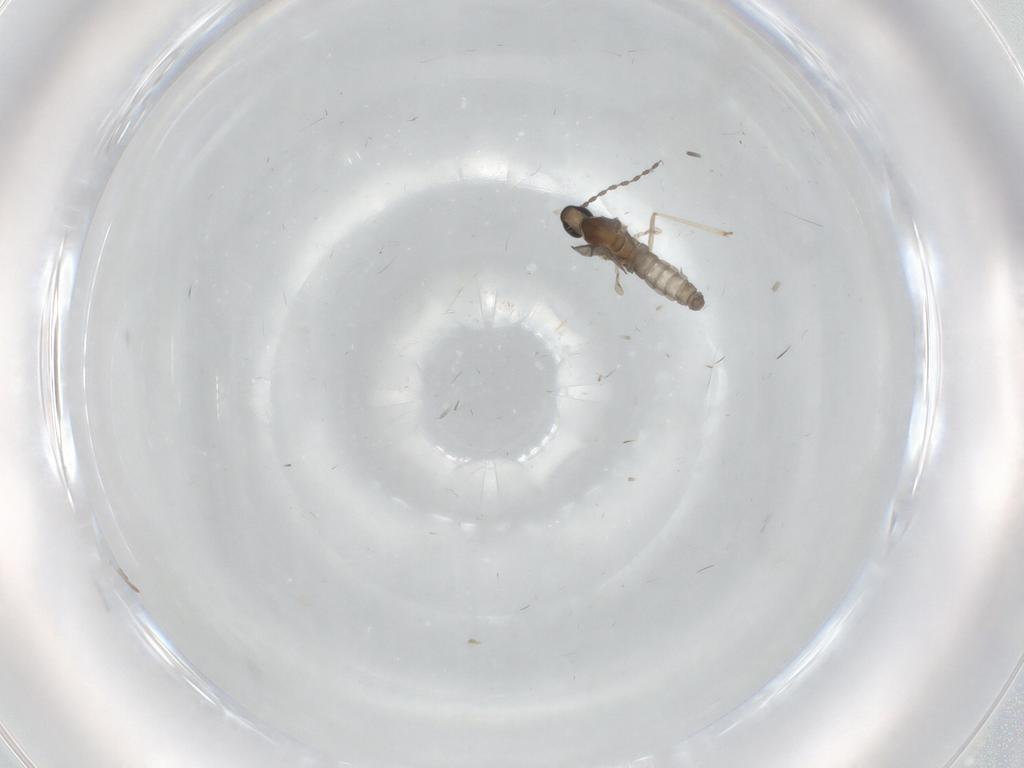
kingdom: Animalia
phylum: Arthropoda
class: Insecta
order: Diptera
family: Cecidomyiidae
